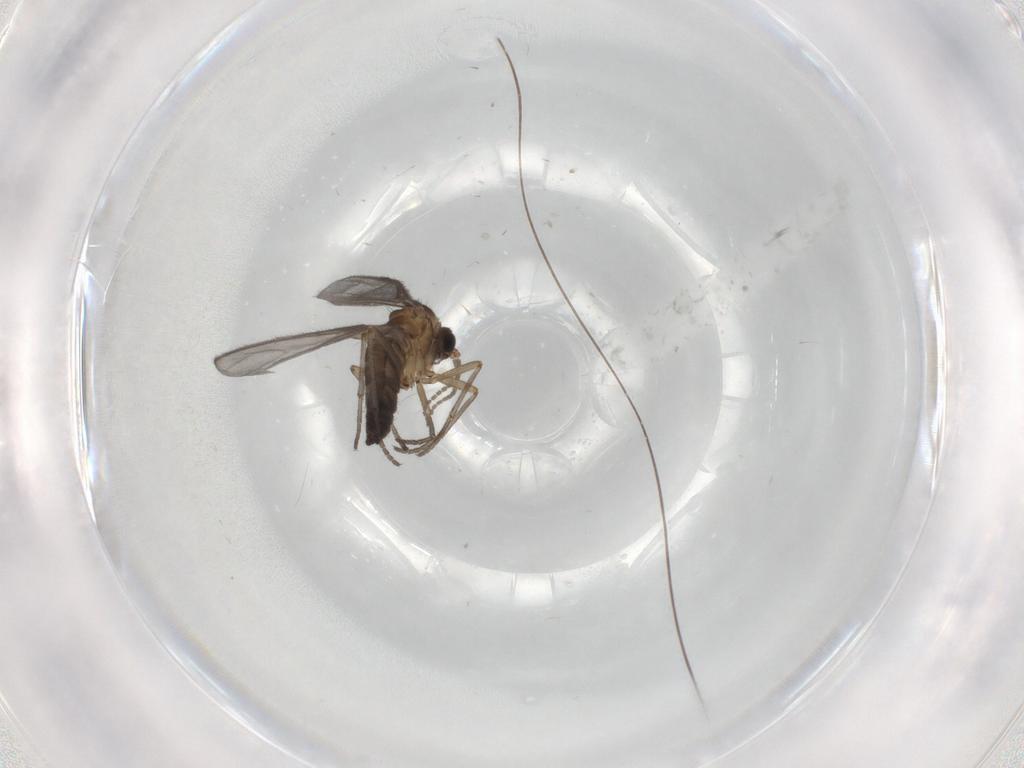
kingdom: Animalia
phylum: Arthropoda
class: Insecta
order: Diptera
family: Sciaridae
